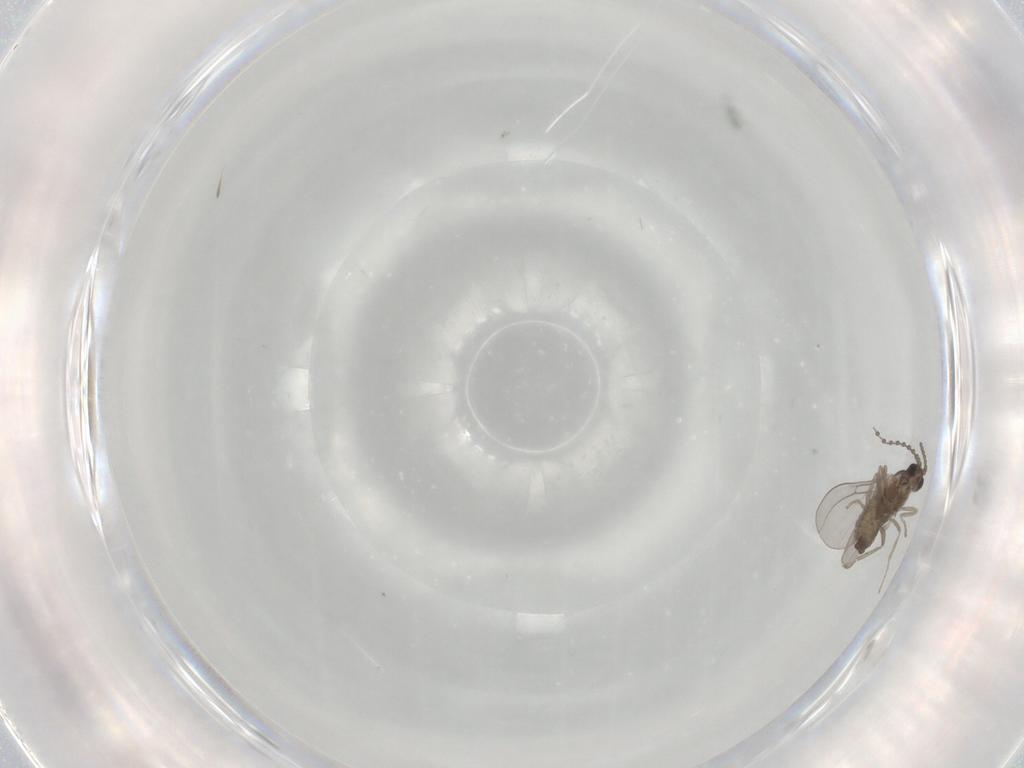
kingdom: Animalia
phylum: Arthropoda
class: Insecta
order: Diptera
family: Cecidomyiidae
